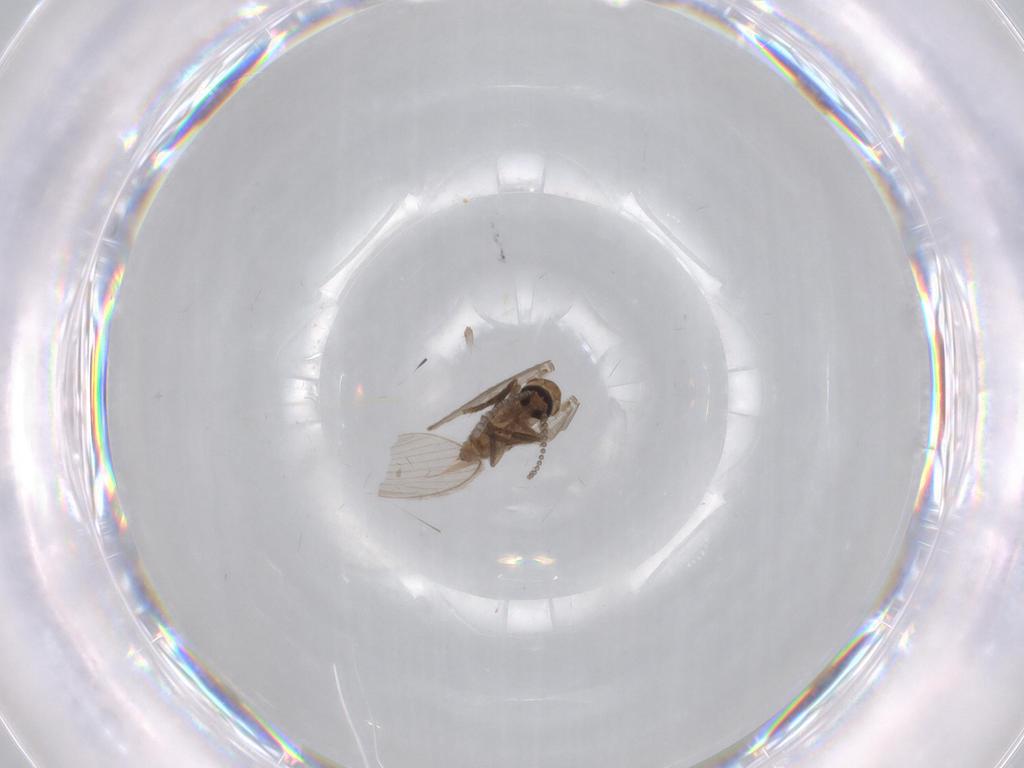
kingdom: Animalia
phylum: Arthropoda
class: Insecta
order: Diptera
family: Psychodidae
